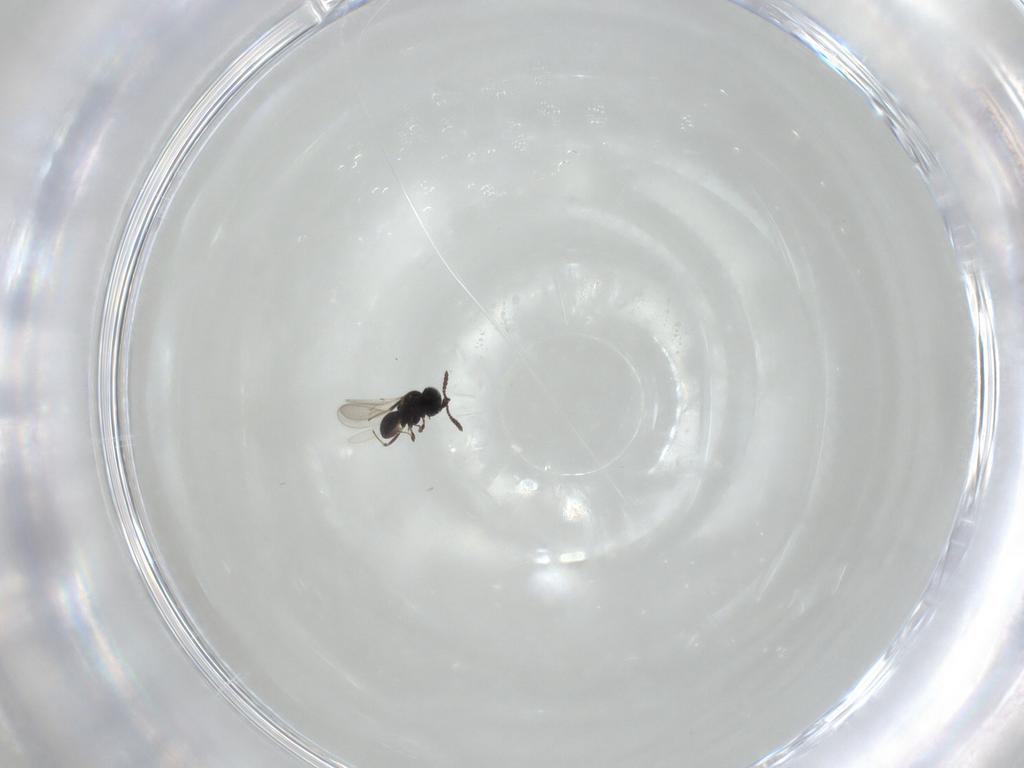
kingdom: Animalia
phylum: Arthropoda
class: Insecta
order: Hymenoptera
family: Scelionidae
